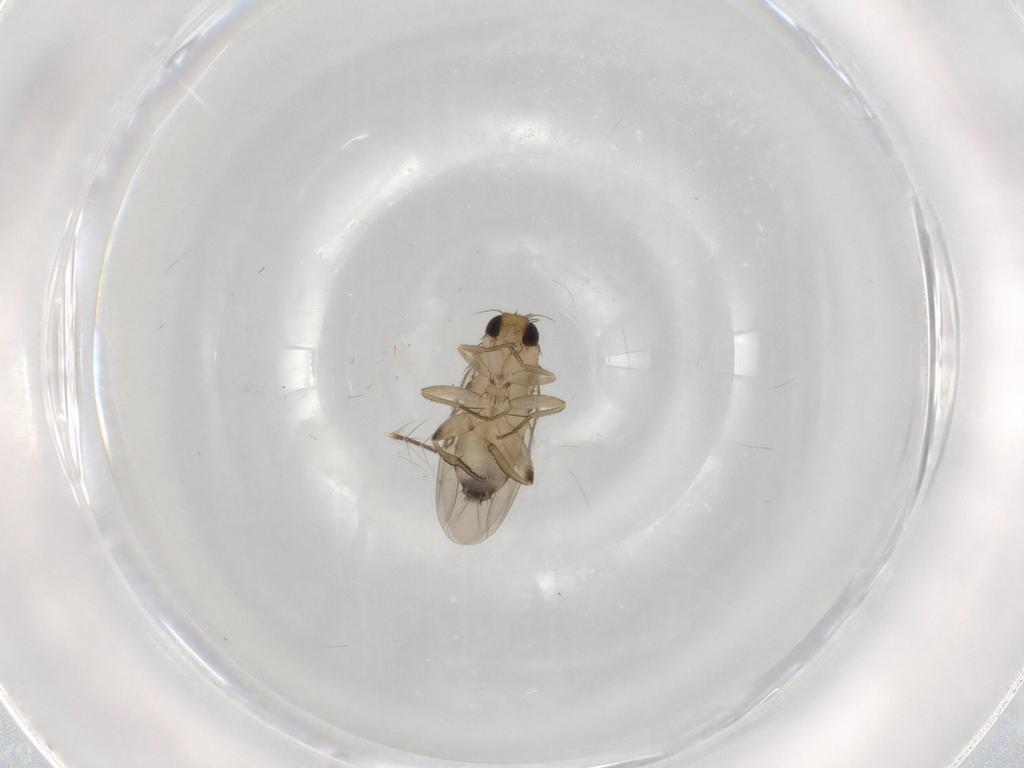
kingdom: Animalia
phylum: Arthropoda
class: Insecta
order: Diptera
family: Phoridae
